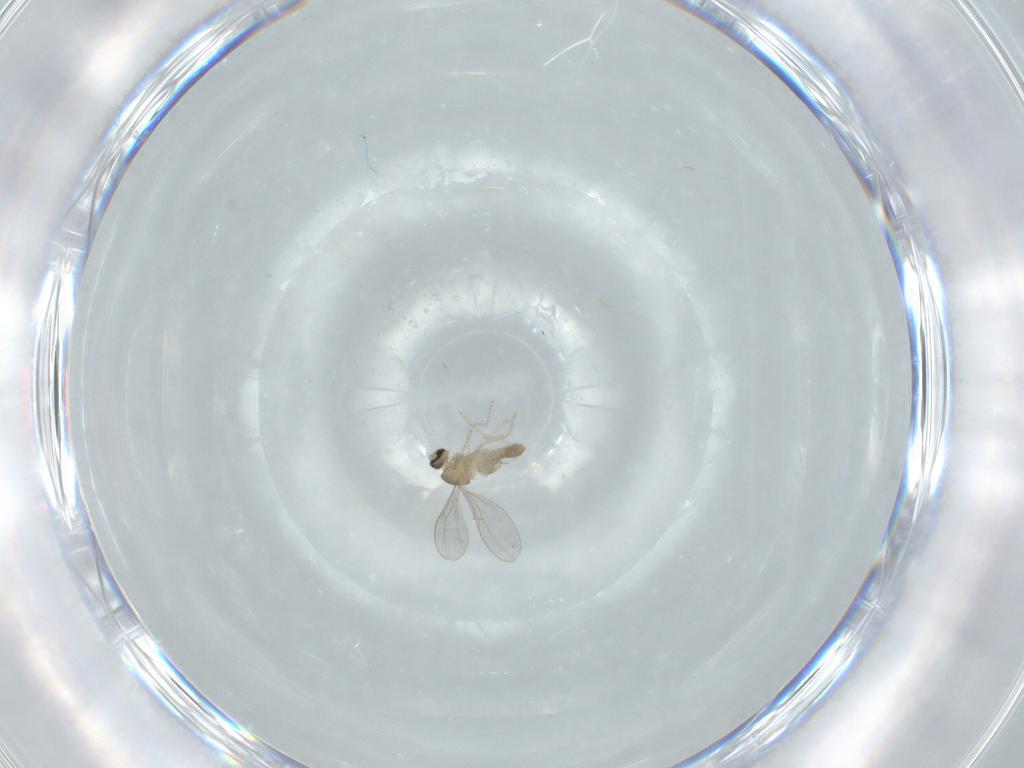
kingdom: Animalia
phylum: Arthropoda
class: Insecta
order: Diptera
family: Cecidomyiidae
